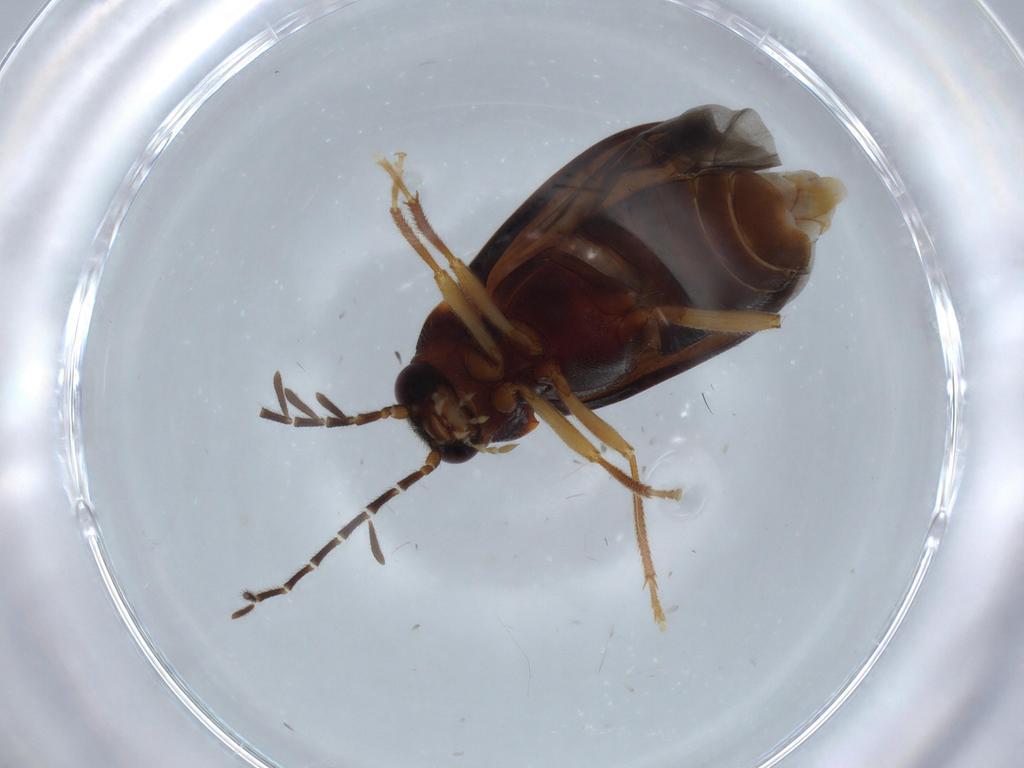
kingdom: Animalia
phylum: Arthropoda
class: Insecta
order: Coleoptera
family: Ptilodactylidae
